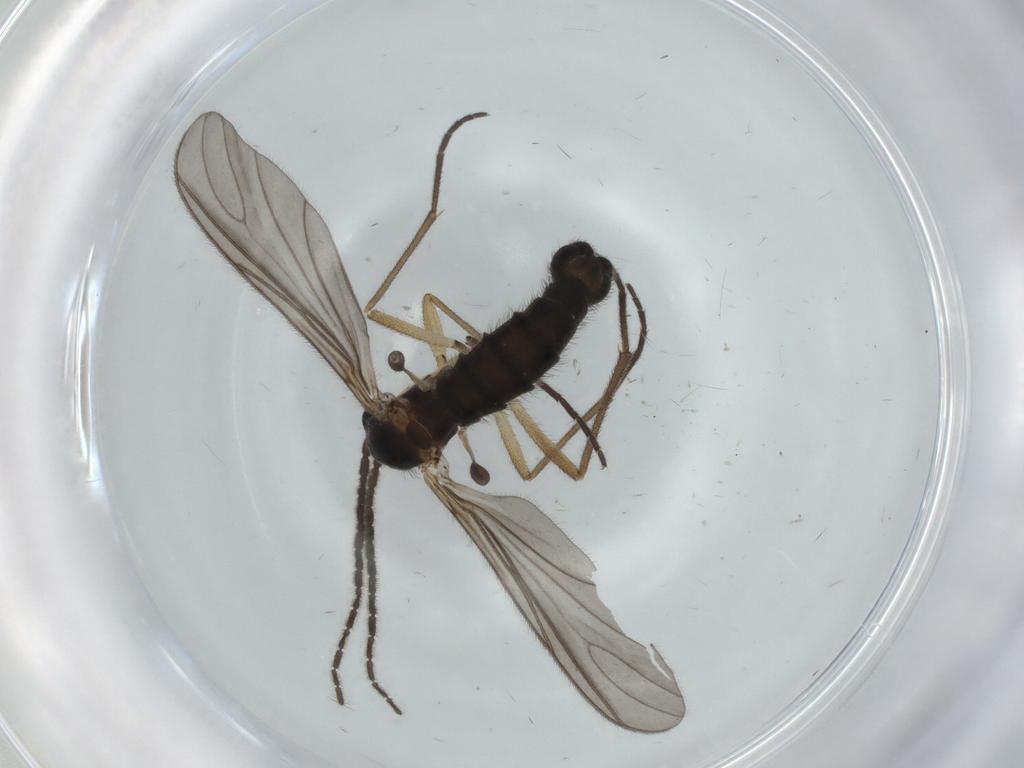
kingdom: Animalia
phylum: Arthropoda
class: Insecta
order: Diptera
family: Sciaridae
